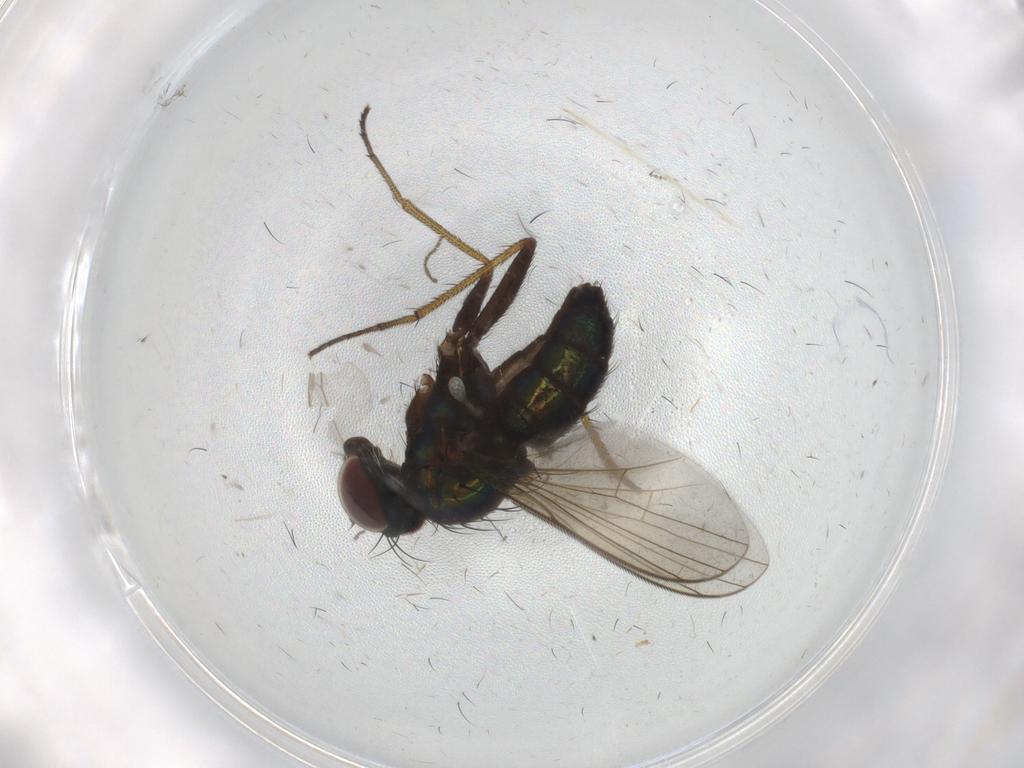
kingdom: Animalia
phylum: Arthropoda
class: Insecta
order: Diptera
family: Dolichopodidae
